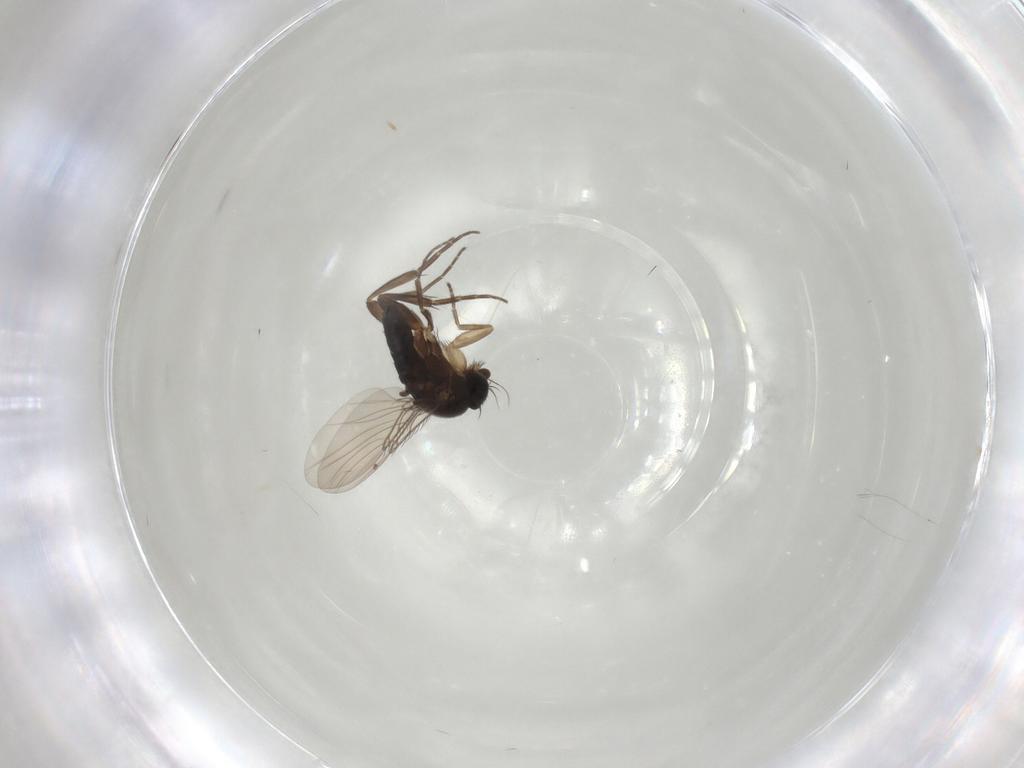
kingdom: Animalia
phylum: Arthropoda
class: Insecta
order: Diptera
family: Phoridae
